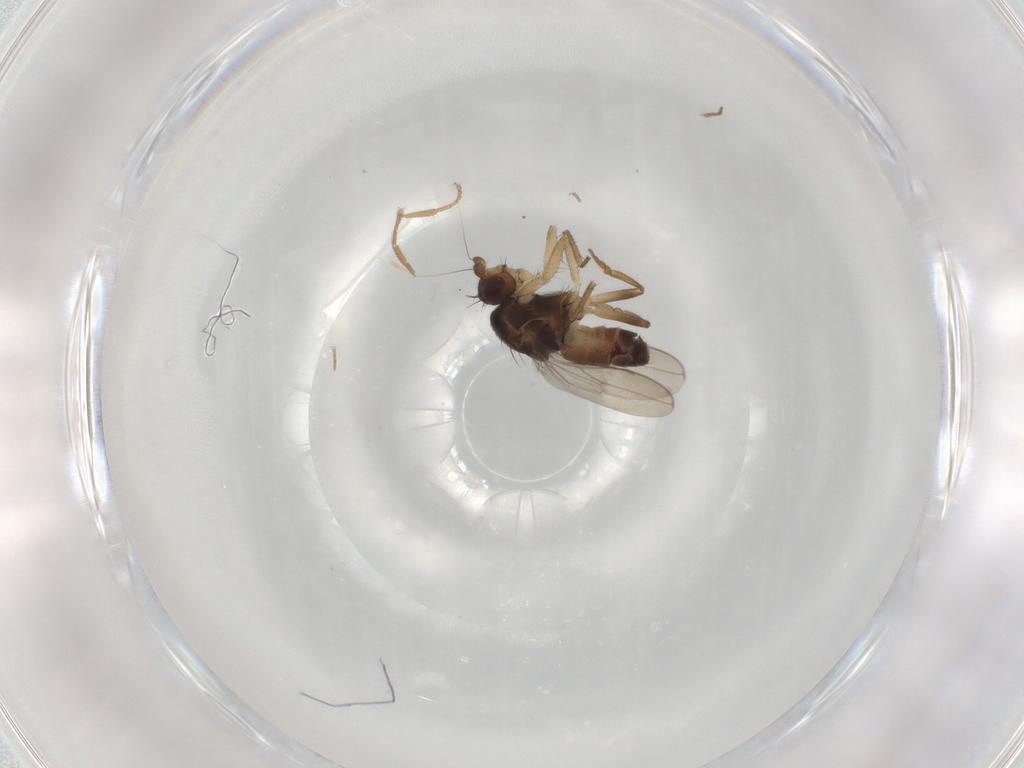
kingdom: Animalia
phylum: Arthropoda
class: Insecta
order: Diptera
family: Sphaeroceridae
